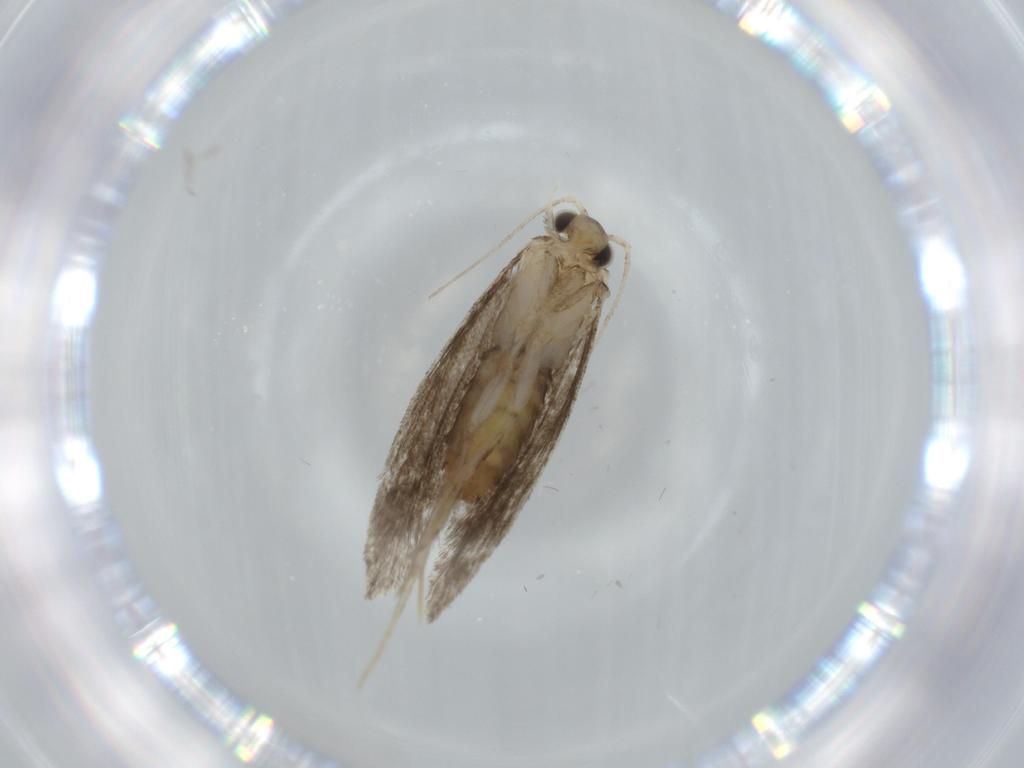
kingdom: Animalia
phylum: Arthropoda
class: Insecta
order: Lepidoptera
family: Tineidae
